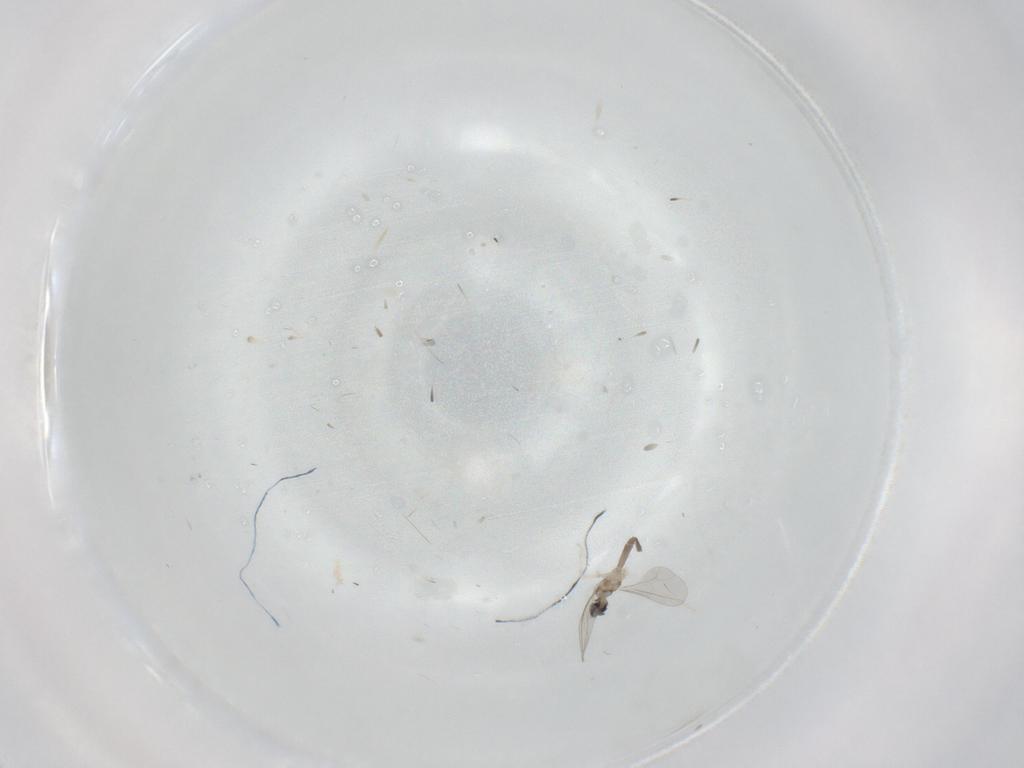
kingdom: Animalia
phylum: Arthropoda
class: Insecta
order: Diptera
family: Cecidomyiidae
